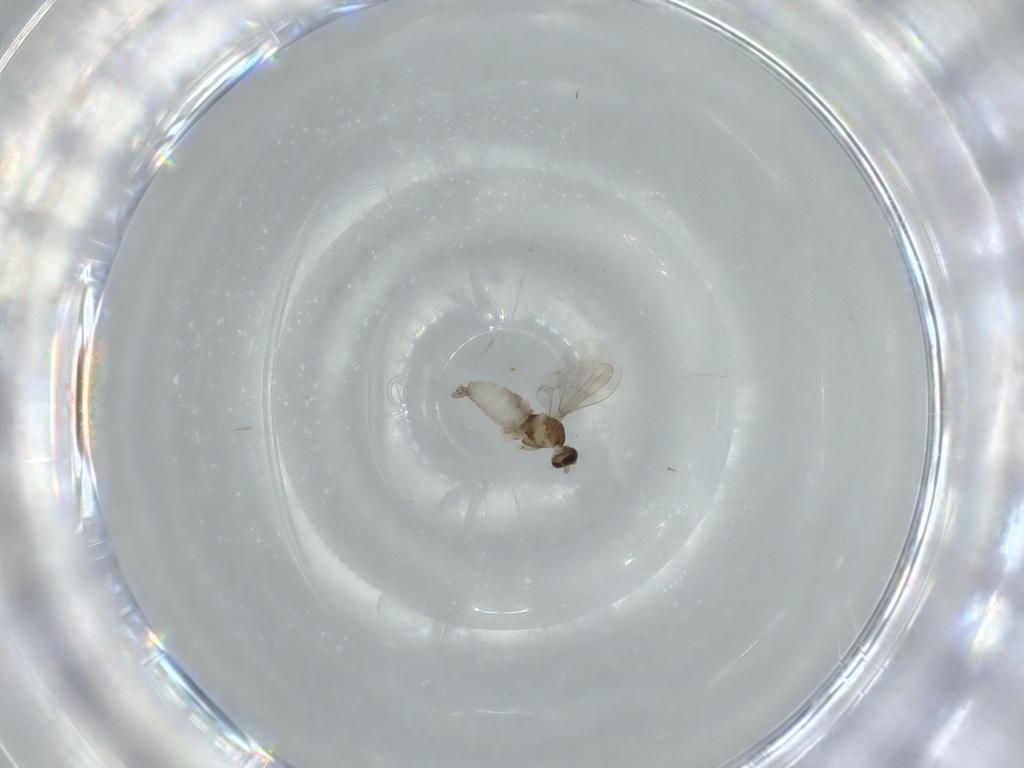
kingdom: Animalia
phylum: Arthropoda
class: Insecta
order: Diptera
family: Cecidomyiidae
